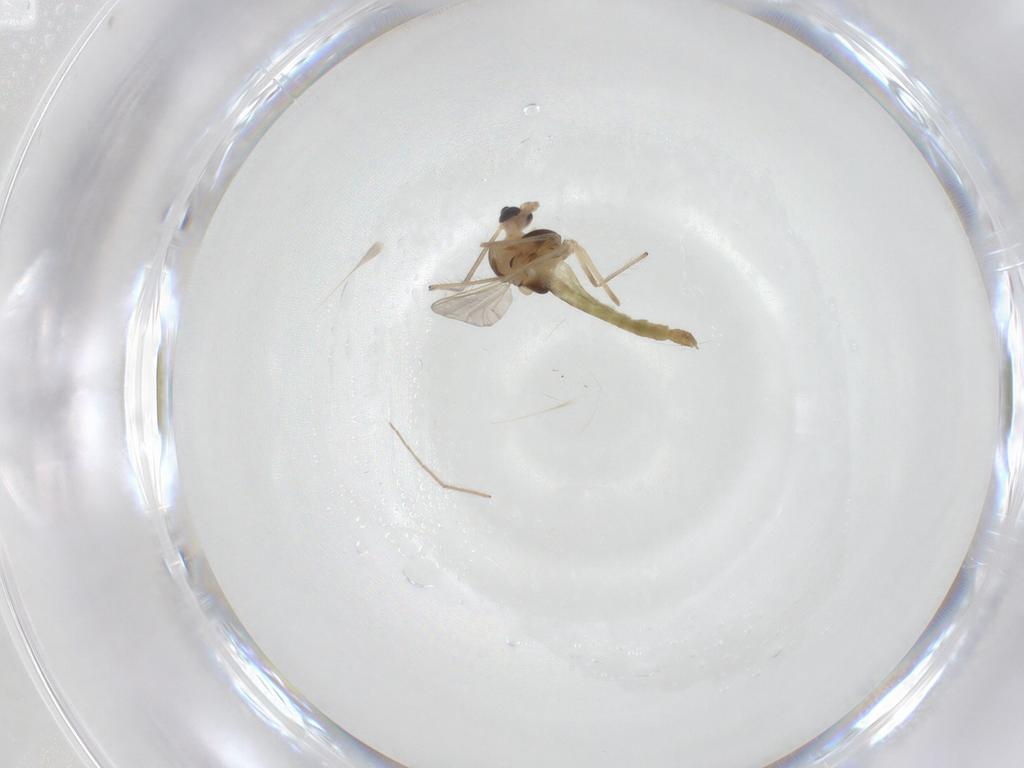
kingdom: Animalia
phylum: Arthropoda
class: Insecta
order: Diptera
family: Chironomidae
